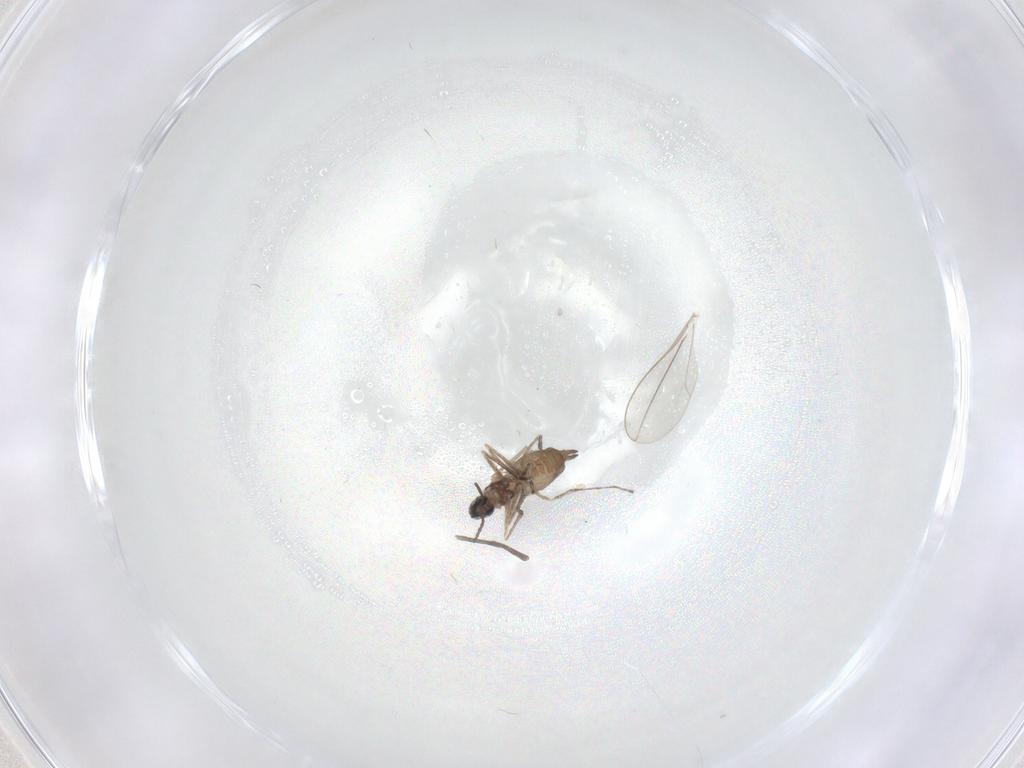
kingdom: Animalia
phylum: Arthropoda
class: Insecta
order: Diptera
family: Cecidomyiidae
